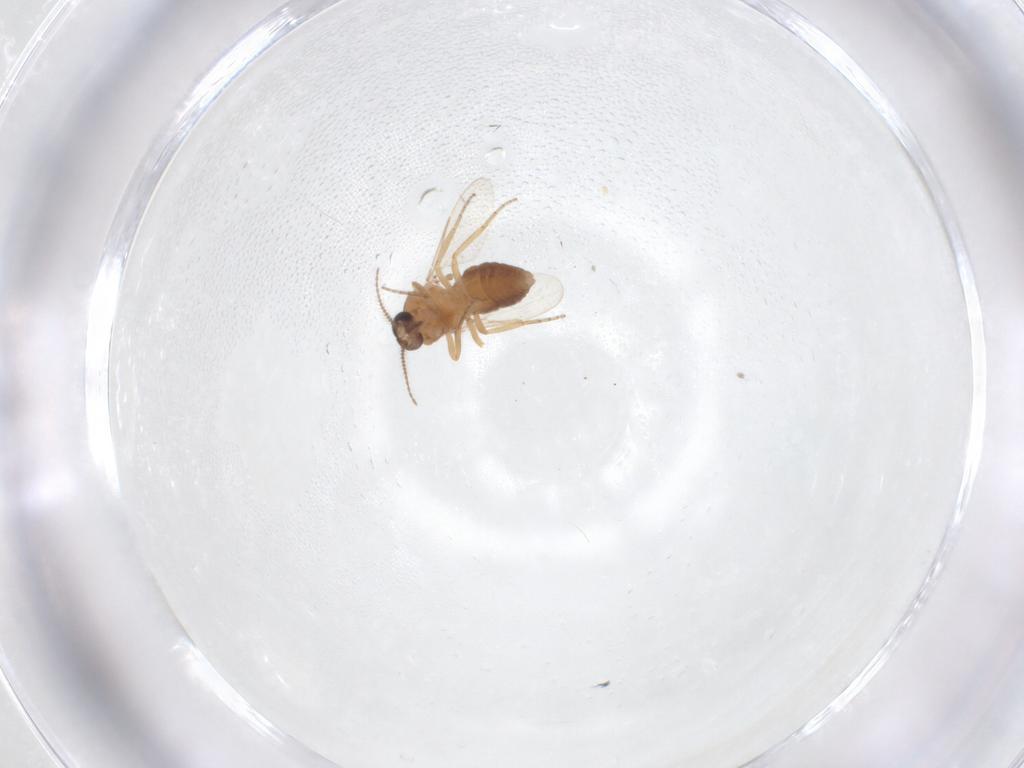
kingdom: Animalia
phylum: Arthropoda
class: Insecta
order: Diptera
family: Ceratopogonidae
